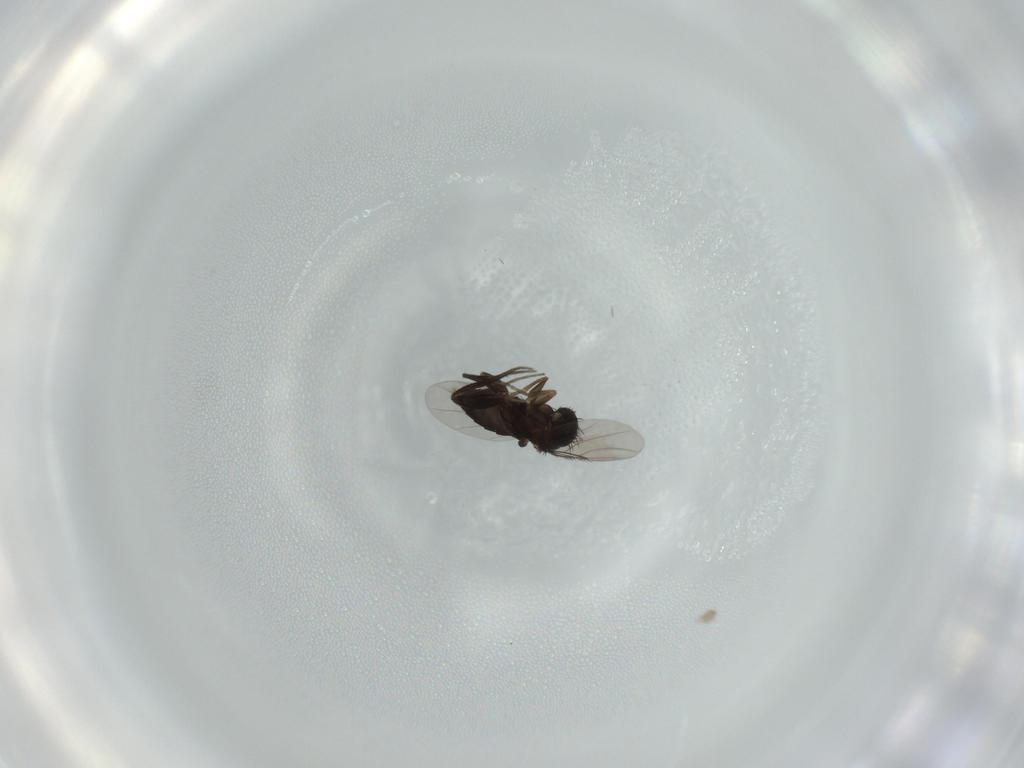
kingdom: Animalia
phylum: Arthropoda
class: Insecta
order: Diptera
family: Phoridae
